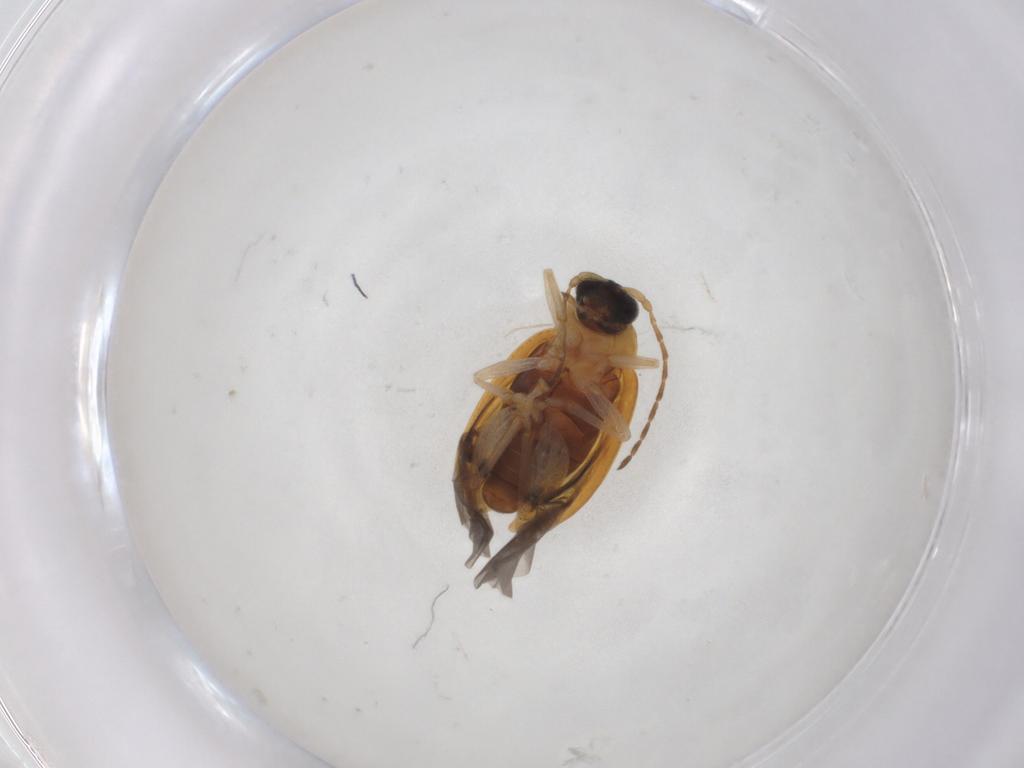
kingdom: Animalia
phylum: Arthropoda
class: Insecta
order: Coleoptera
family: Chrysomelidae
